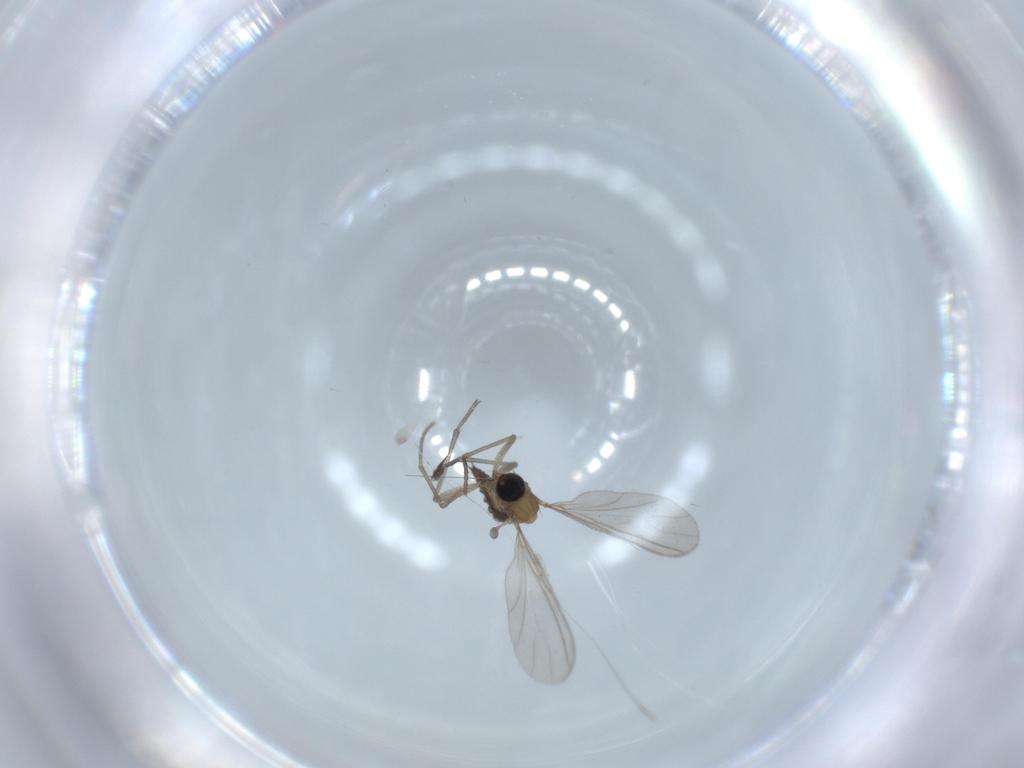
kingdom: Animalia
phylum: Arthropoda
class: Insecta
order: Diptera
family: Sciaridae
